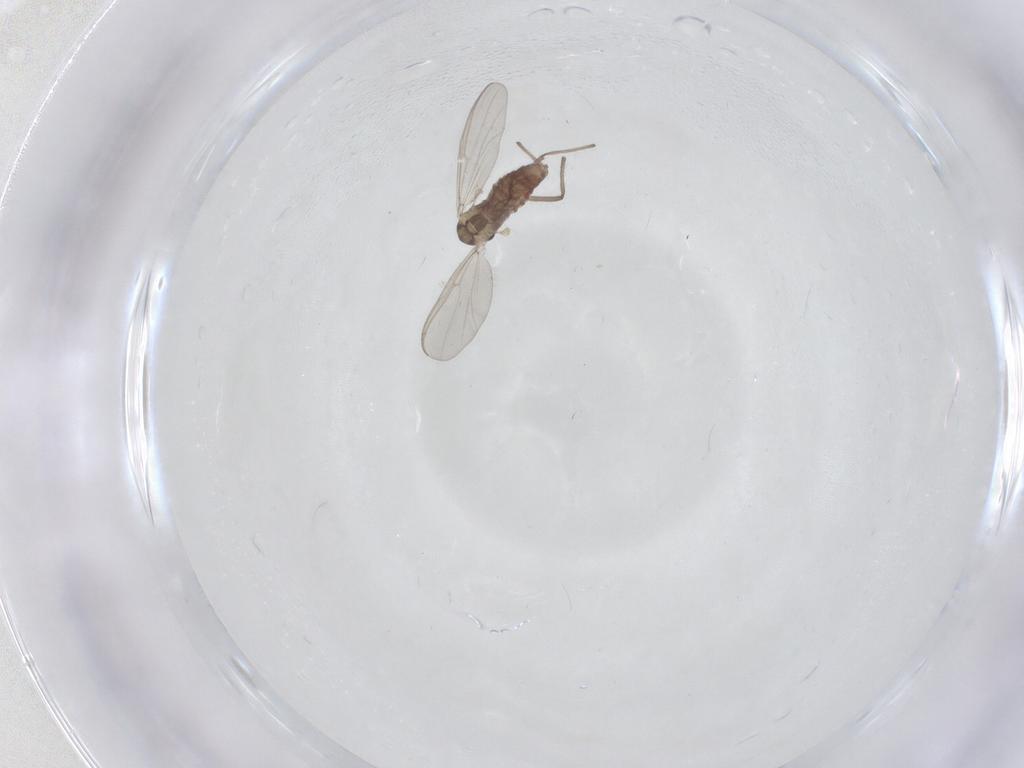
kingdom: Animalia
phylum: Arthropoda
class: Insecta
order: Diptera
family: Chironomidae
